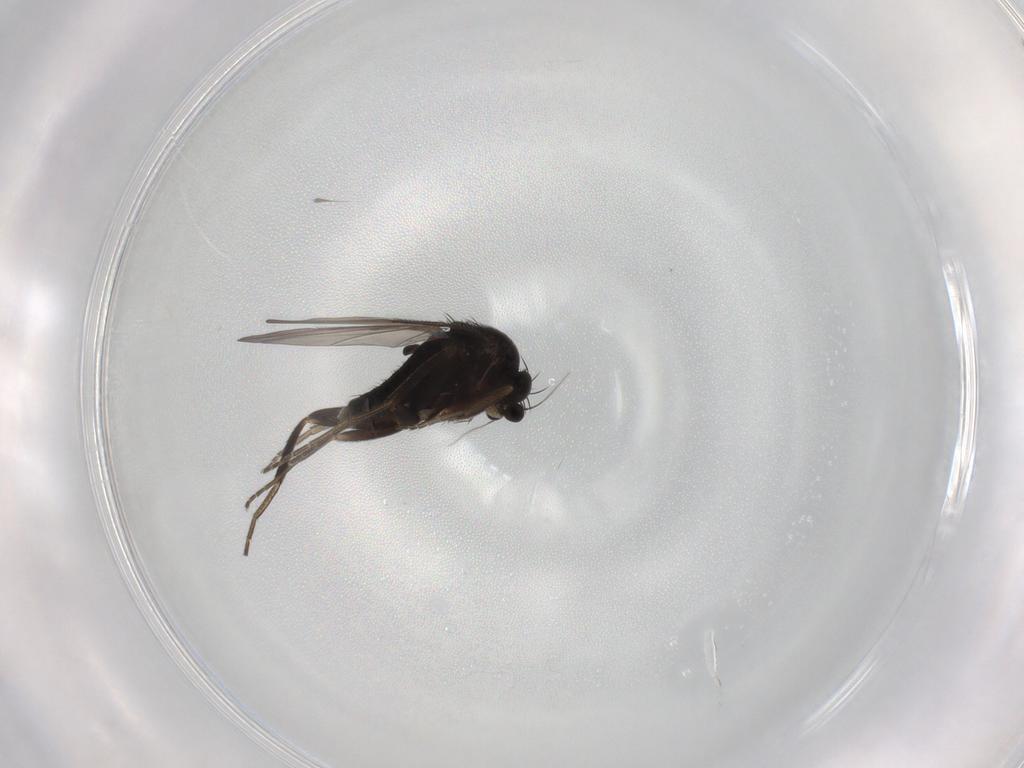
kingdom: Animalia
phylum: Arthropoda
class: Insecta
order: Diptera
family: Phoridae
